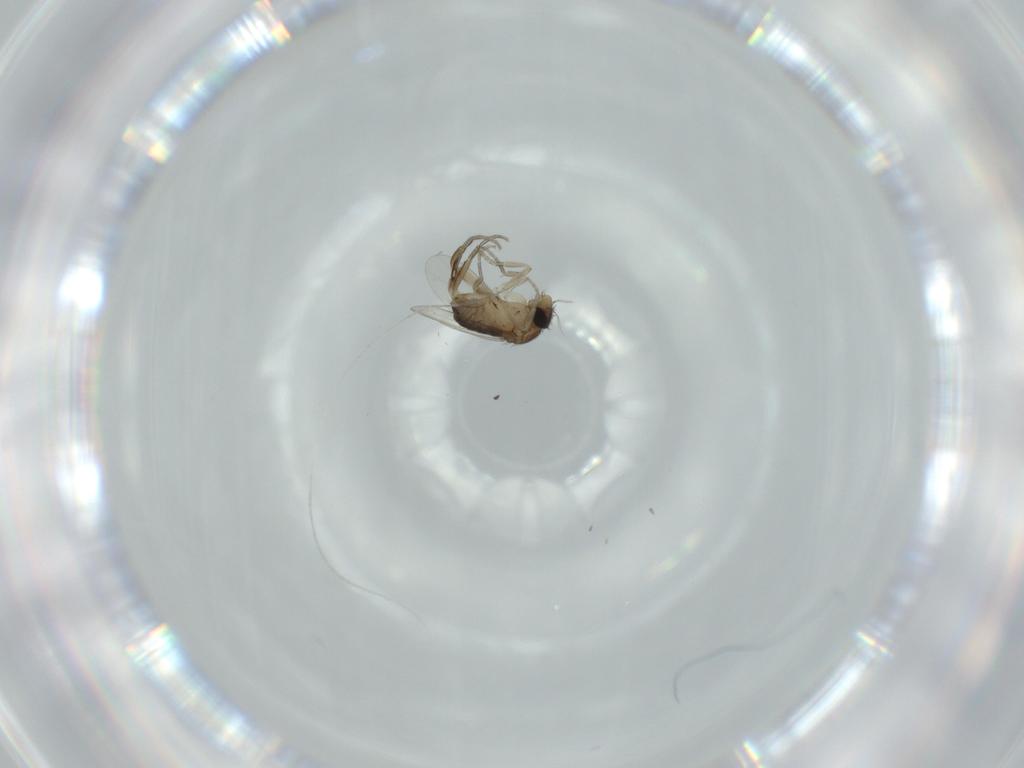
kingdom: Animalia
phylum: Arthropoda
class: Insecta
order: Diptera
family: Phoridae
